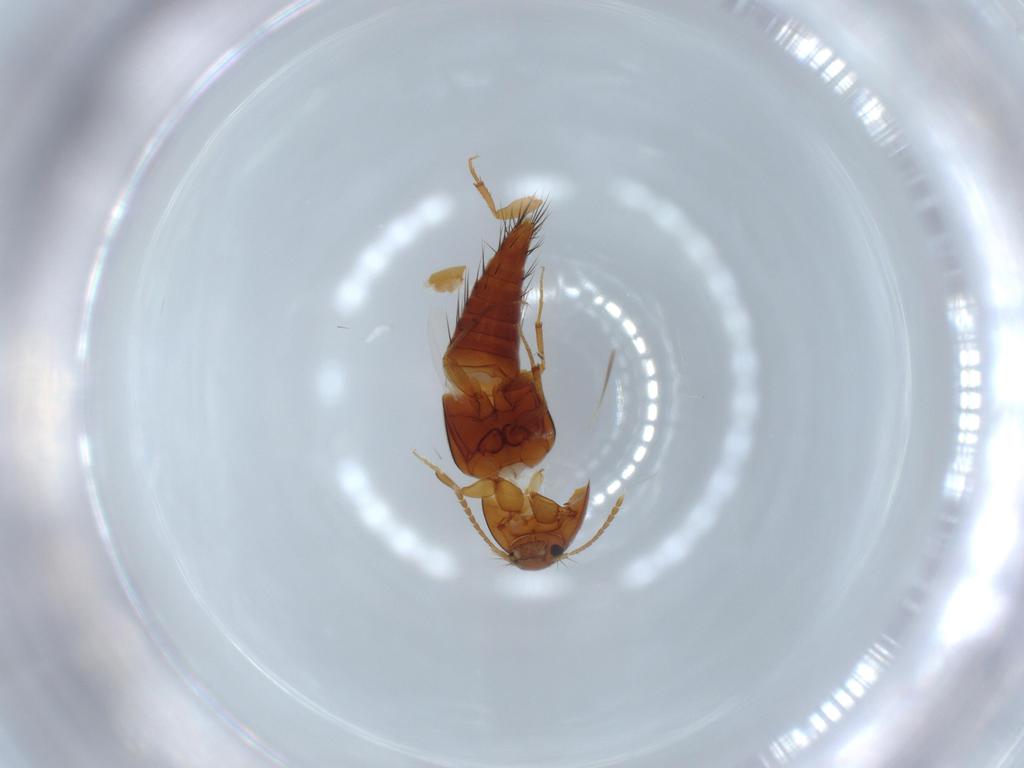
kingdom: Animalia
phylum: Arthropoda
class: Insecta
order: Coleoptera
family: Staphylinidae
